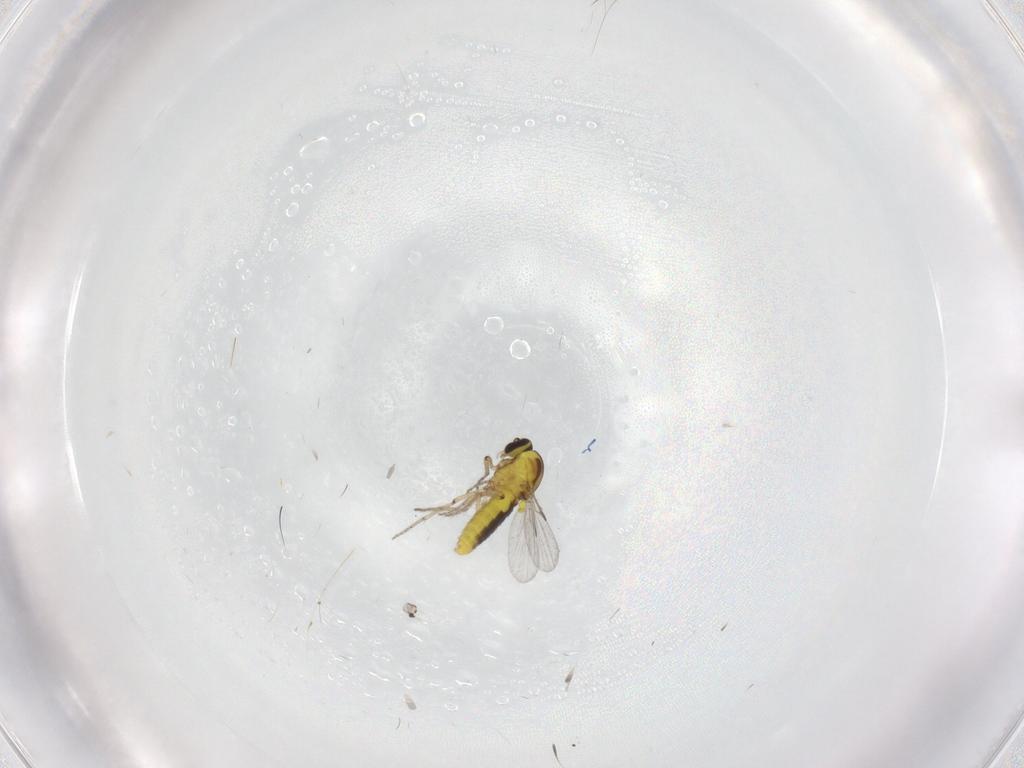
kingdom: Animalia
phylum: Arthropoda
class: Insecta
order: Diptera
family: Ceratopogonidae
